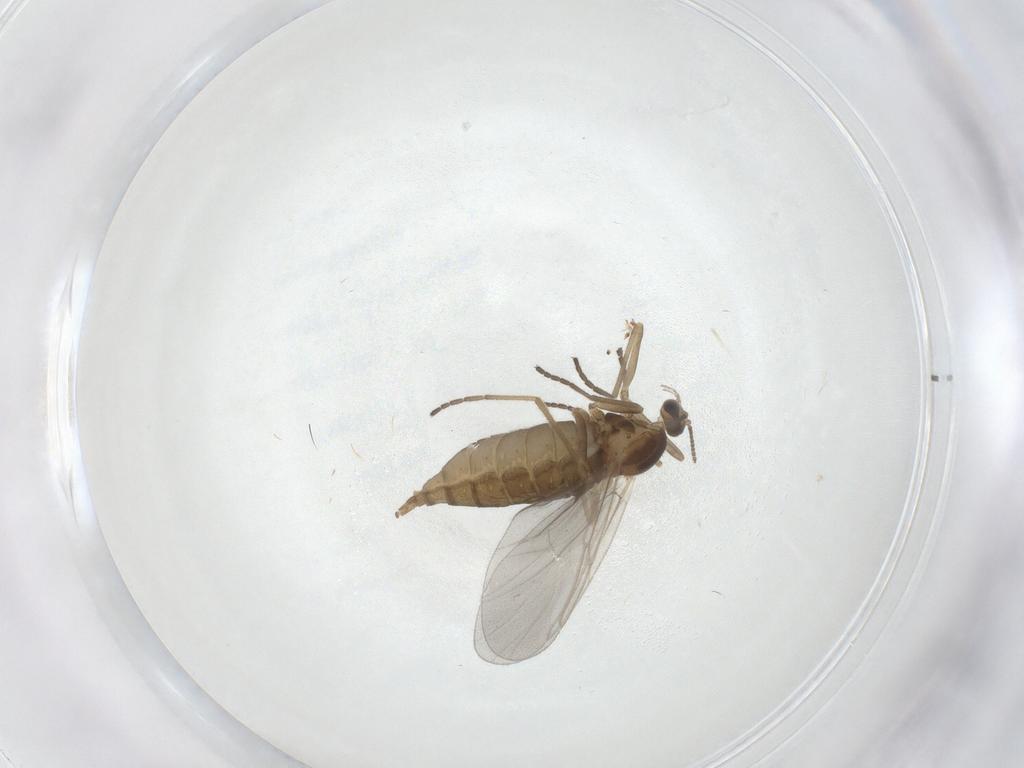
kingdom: Animalia
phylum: Arthropoda
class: Insecta
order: Diptera
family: Cecidomyiidae
